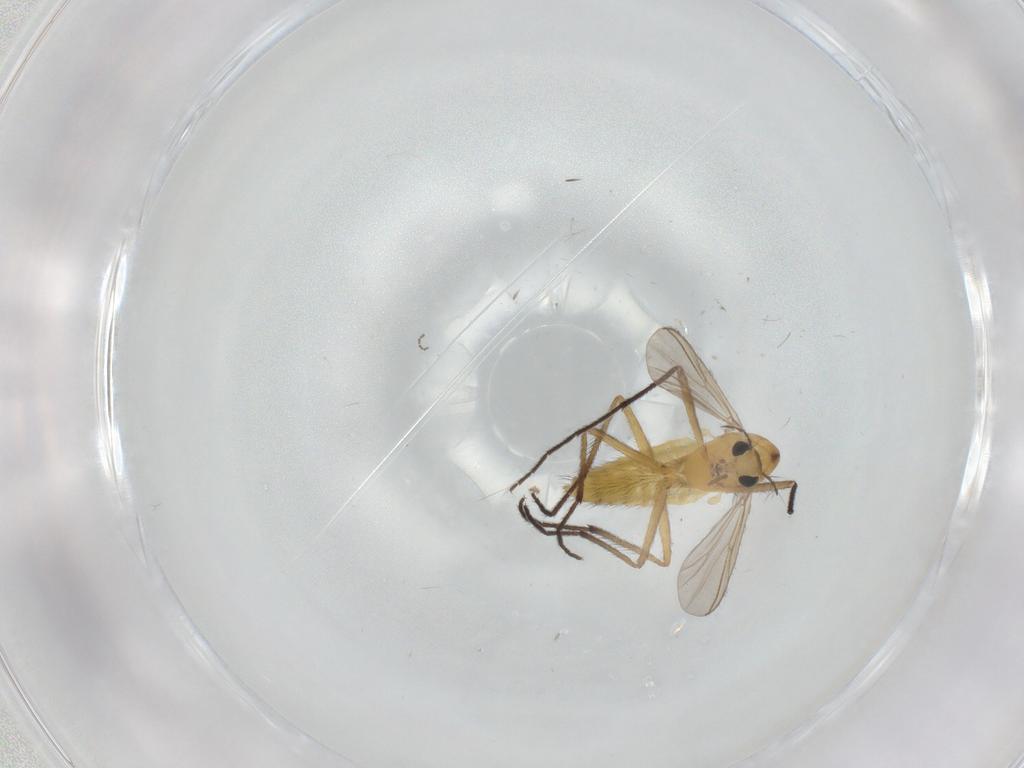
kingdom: Animalia
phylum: Arthropoda
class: Insecta
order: Diptera
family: Chironomidae
